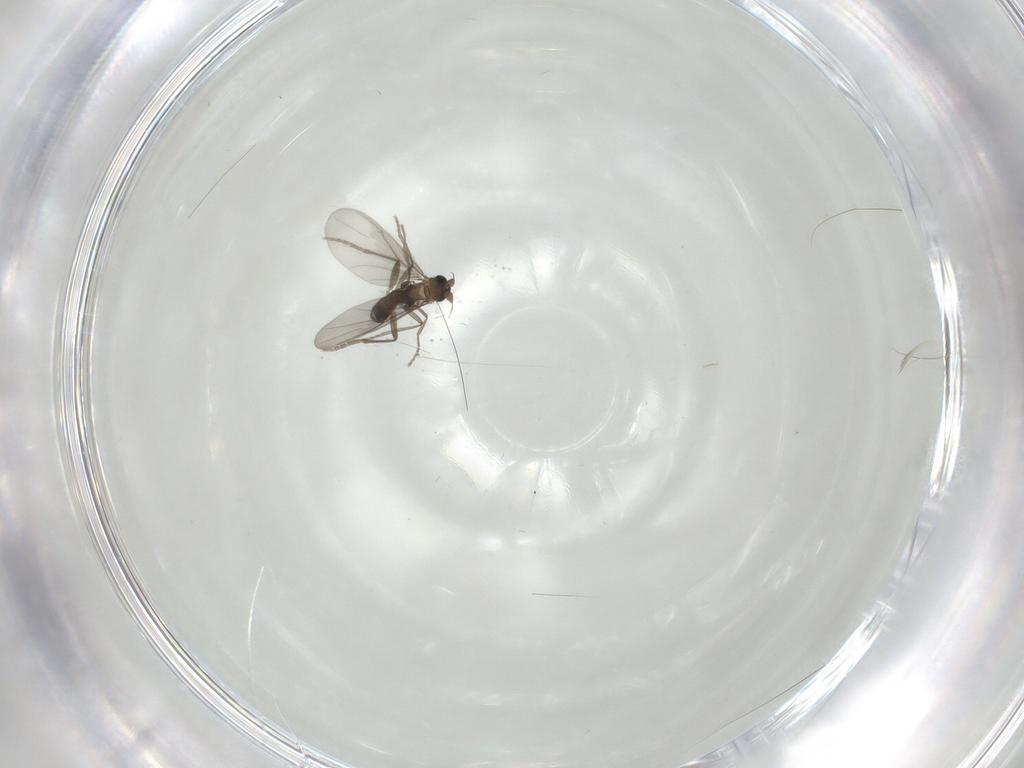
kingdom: Animalia
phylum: Arthropoda
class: Insecta
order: Diptera
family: Phoridae
